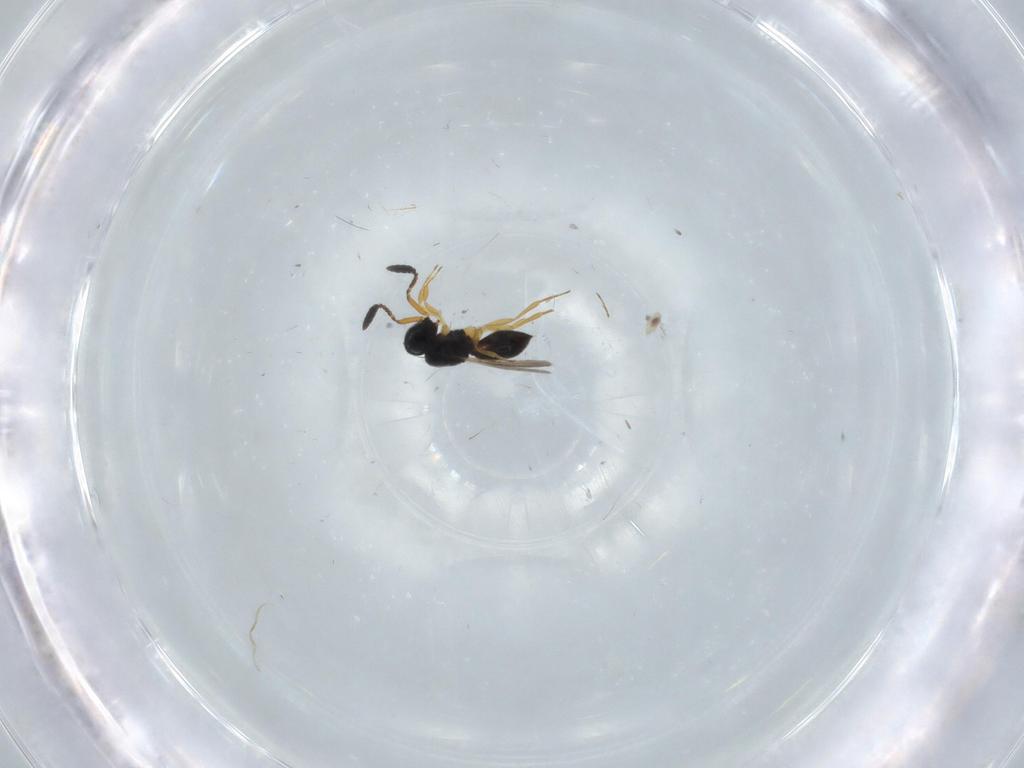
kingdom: Animalia
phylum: Arthropoda
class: Insecta
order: Hymenoptera
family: Scelionidae
